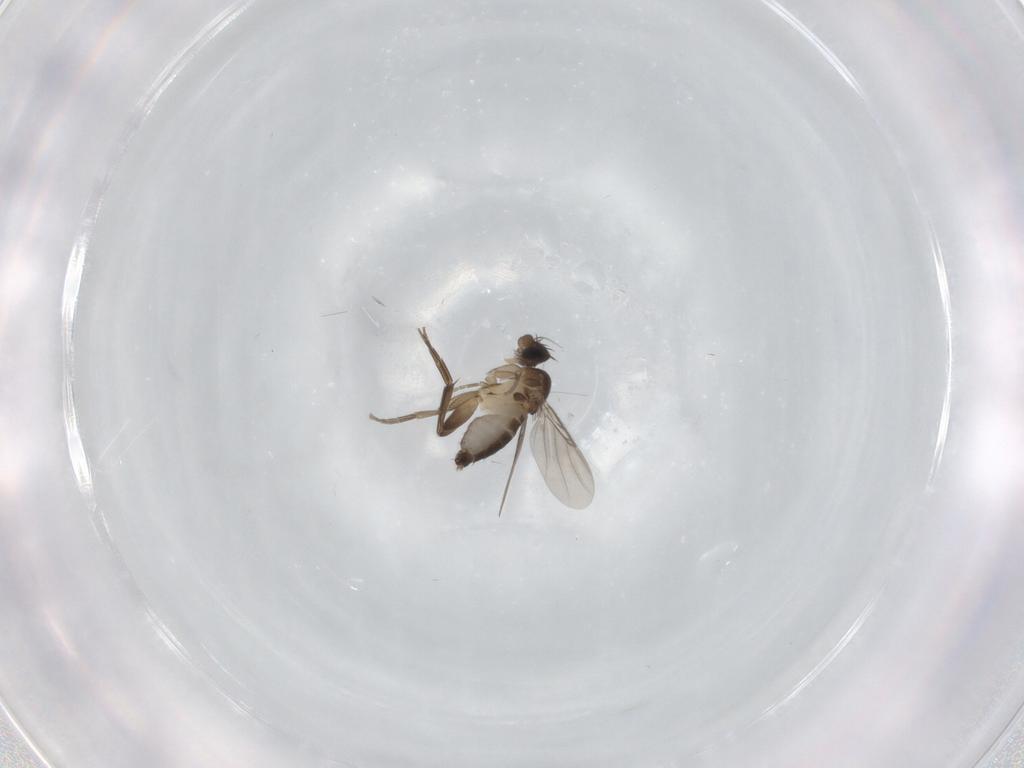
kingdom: Animalia
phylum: Arthropoda
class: Insecta
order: Diptera
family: Phoridae
